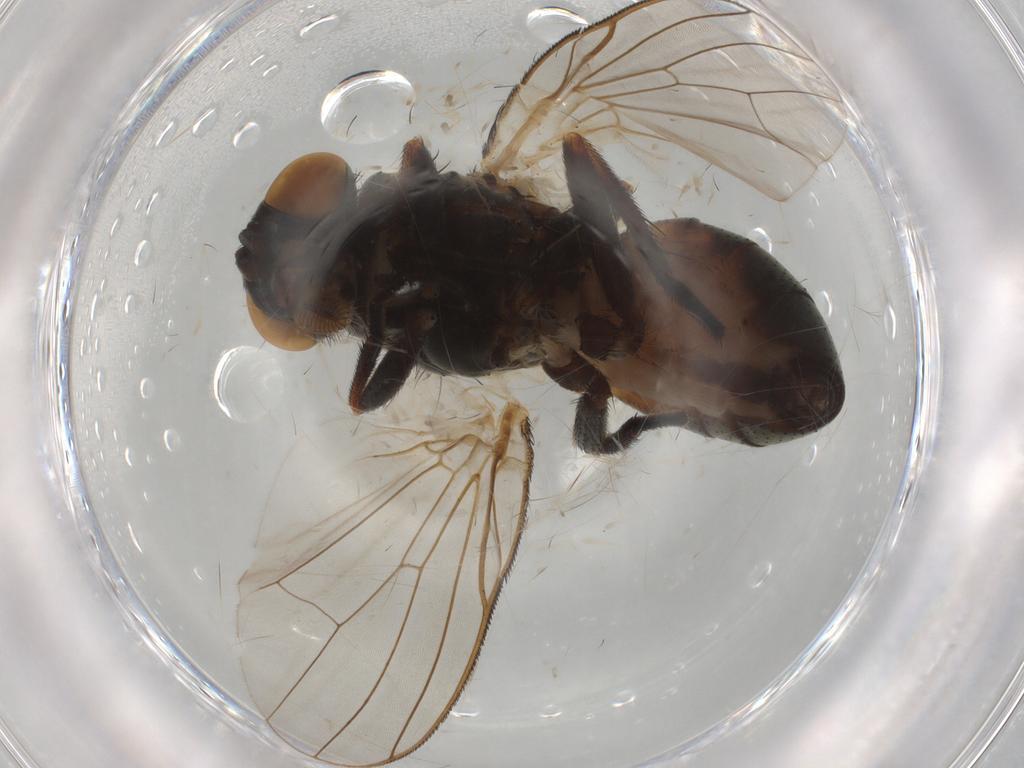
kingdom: Animalia
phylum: Arthropoda
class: Insecta
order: Diptera
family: Fannia
